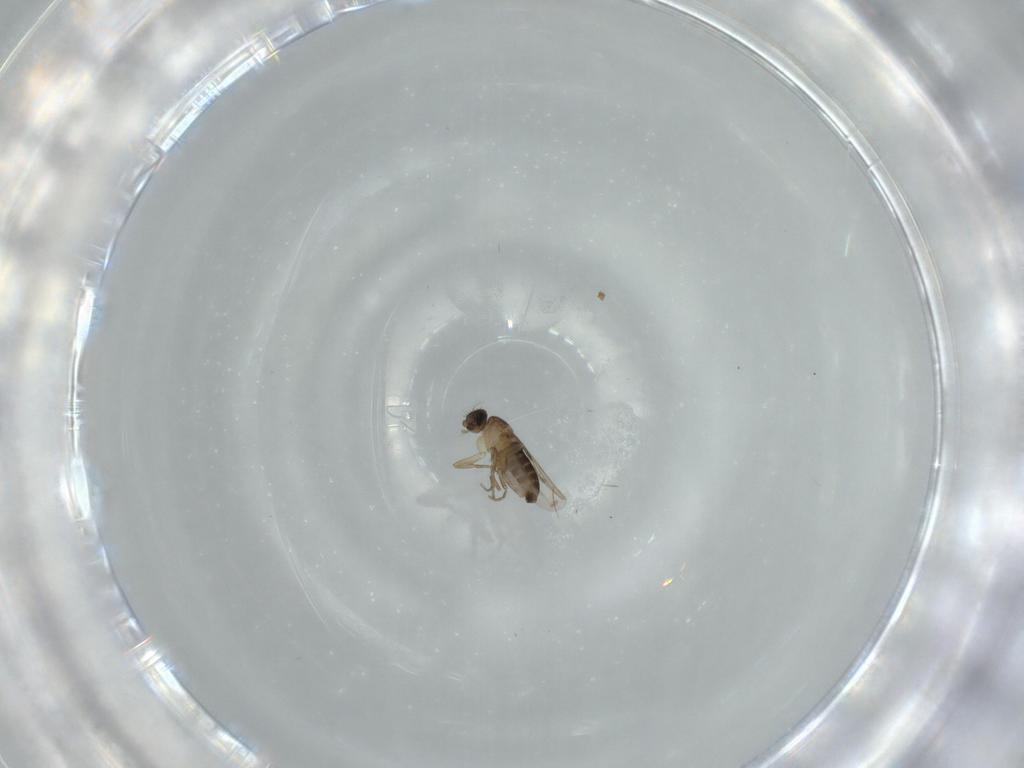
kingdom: Animalia
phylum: Arthropoda
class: Insecta
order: Diptera
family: Phoridae
